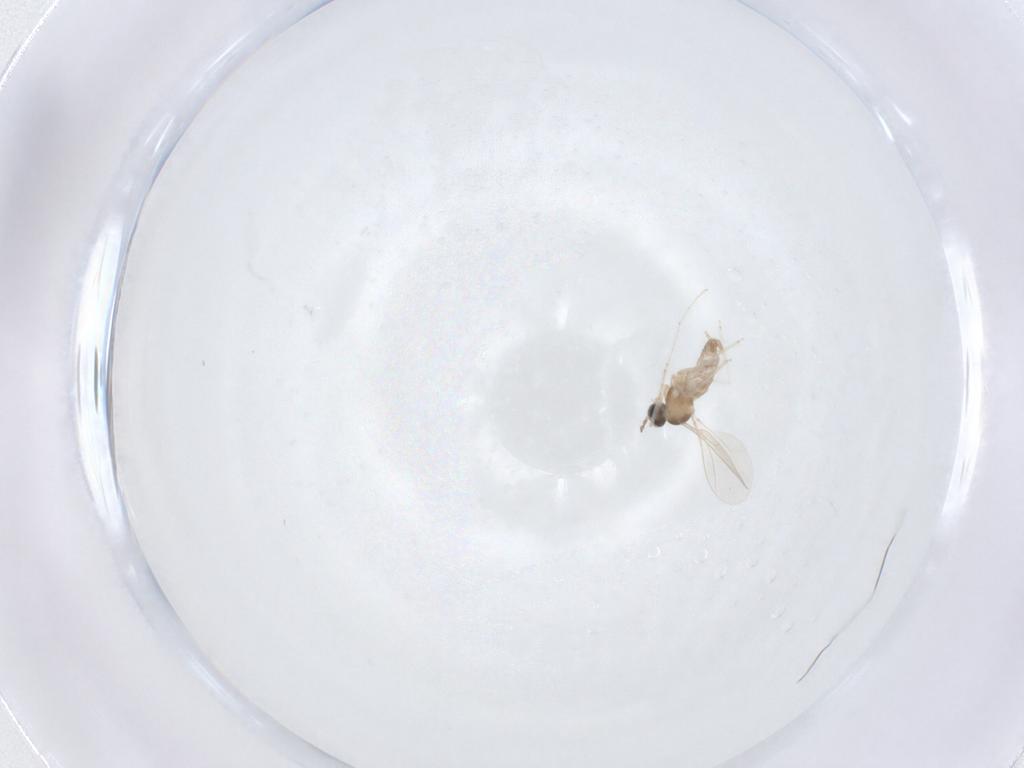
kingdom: Animalia
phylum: Arthropoda
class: Insecta
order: Diptera
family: Cecidomyiidae
